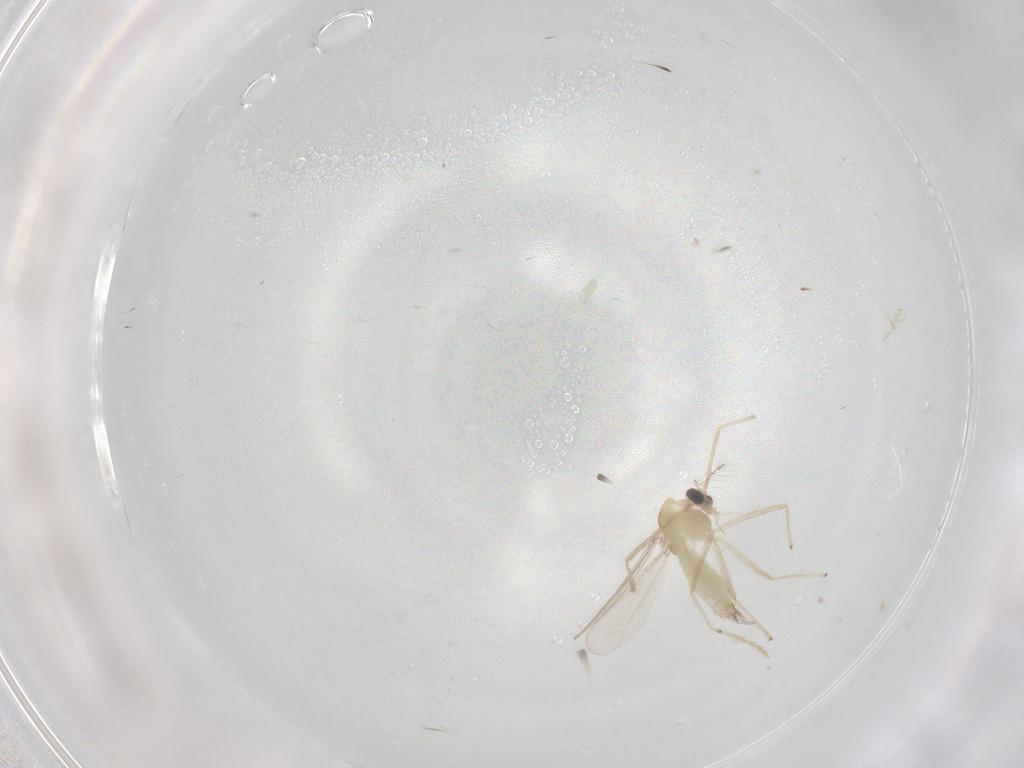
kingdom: Animalia
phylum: Arthropoda
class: Insecta
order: Diptera
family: Chironomidae
